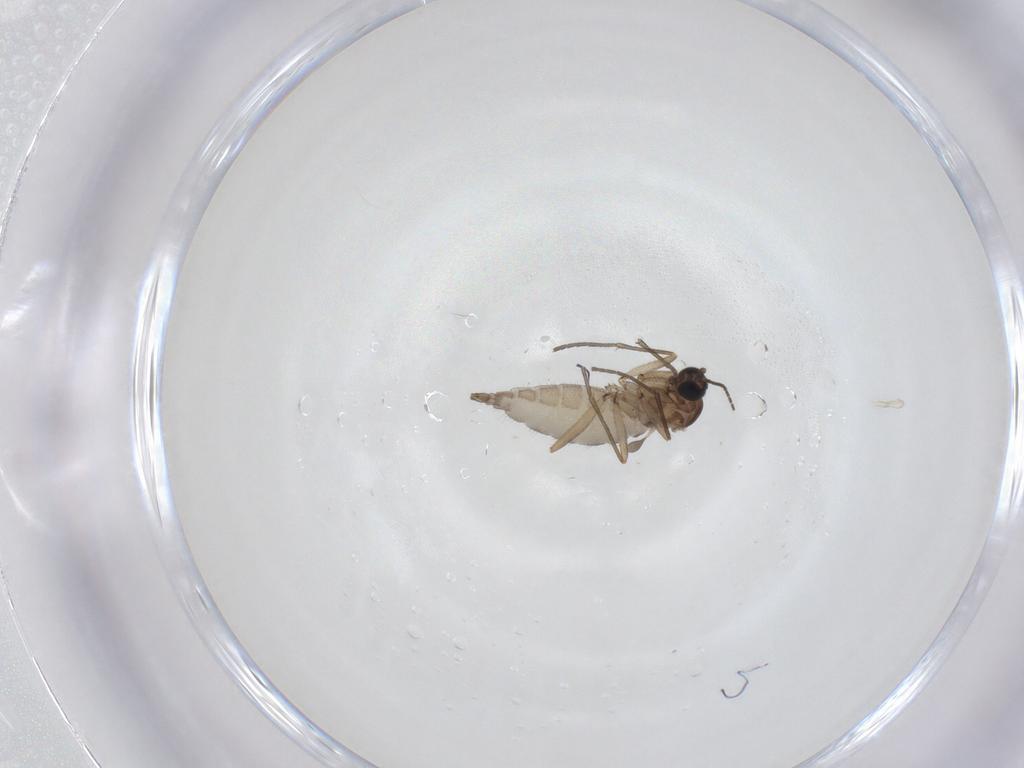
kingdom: Animalia
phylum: Arthropoda
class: Insecta
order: Diptera
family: Sciaridae
